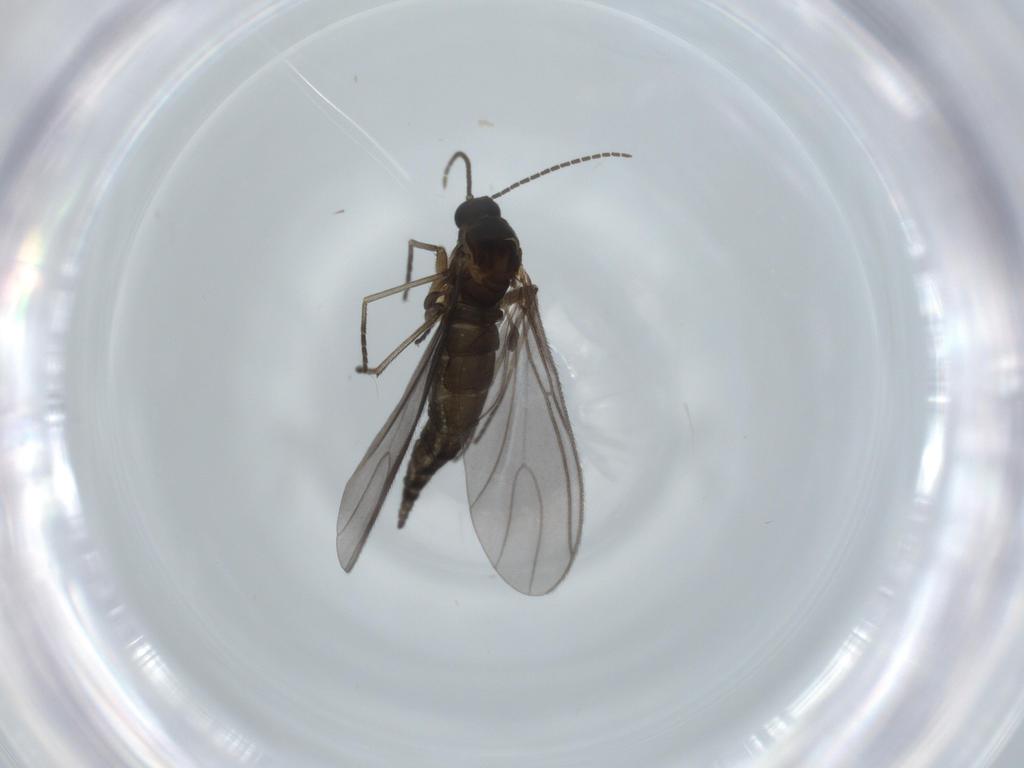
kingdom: Animalia
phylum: Arthropoda
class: Insecta
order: Diptera
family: Sciaridae
